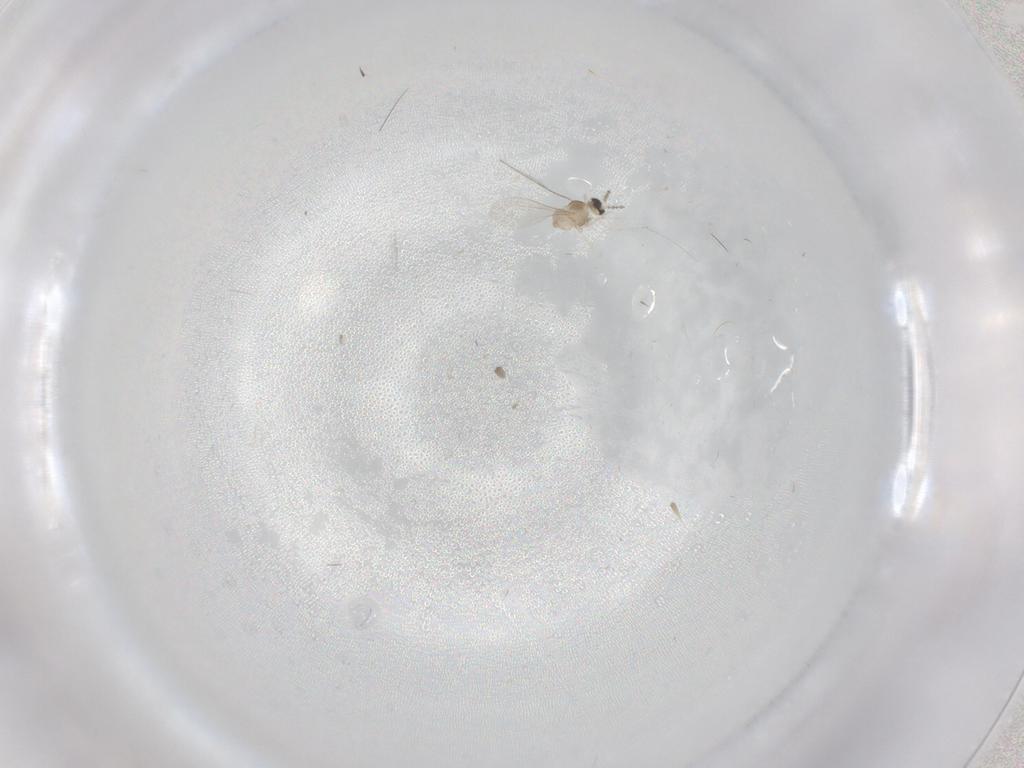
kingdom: Animalia
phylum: Arthropoda
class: Insecta
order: Diptera
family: Cecidomyiidae
